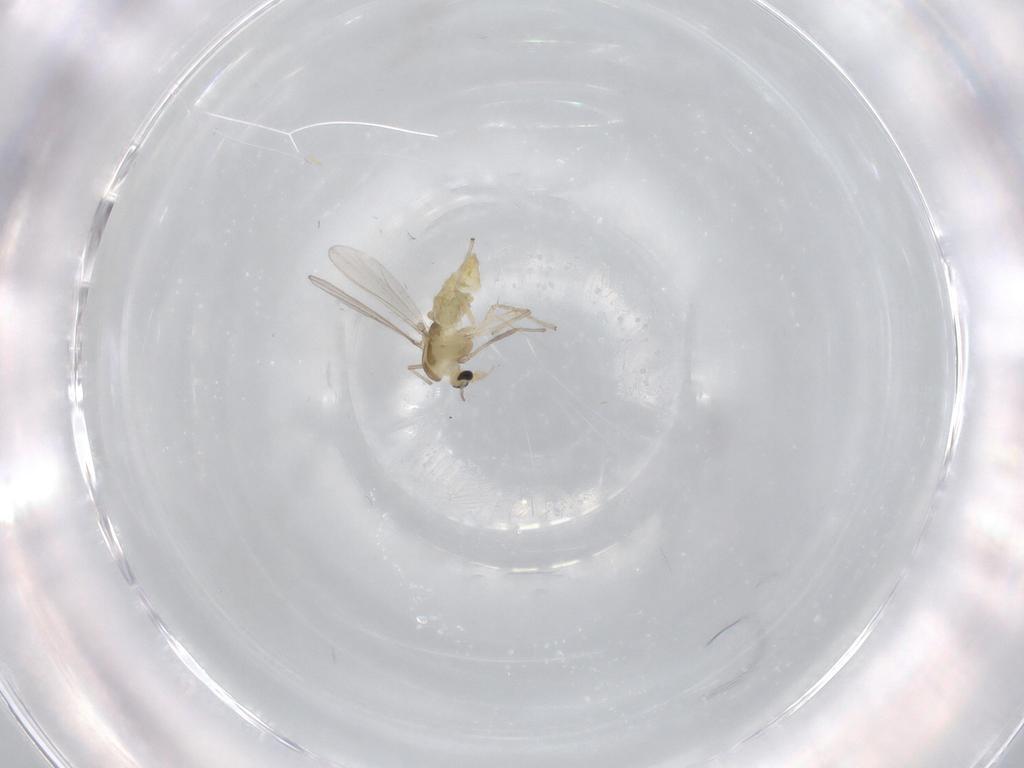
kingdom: Animalia
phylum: Arthropoda
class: Insecta
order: Diptera
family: Chironomidae
